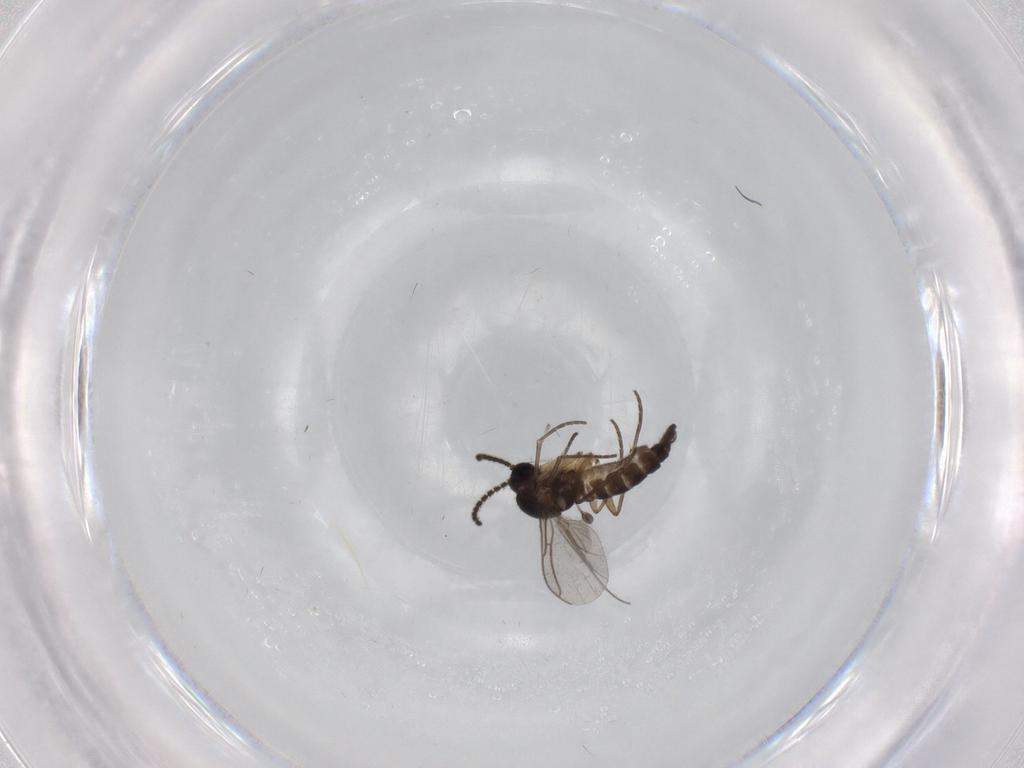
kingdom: Animalia
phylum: Arthropoda
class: Insecta
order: Diptera
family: Sciaridae
